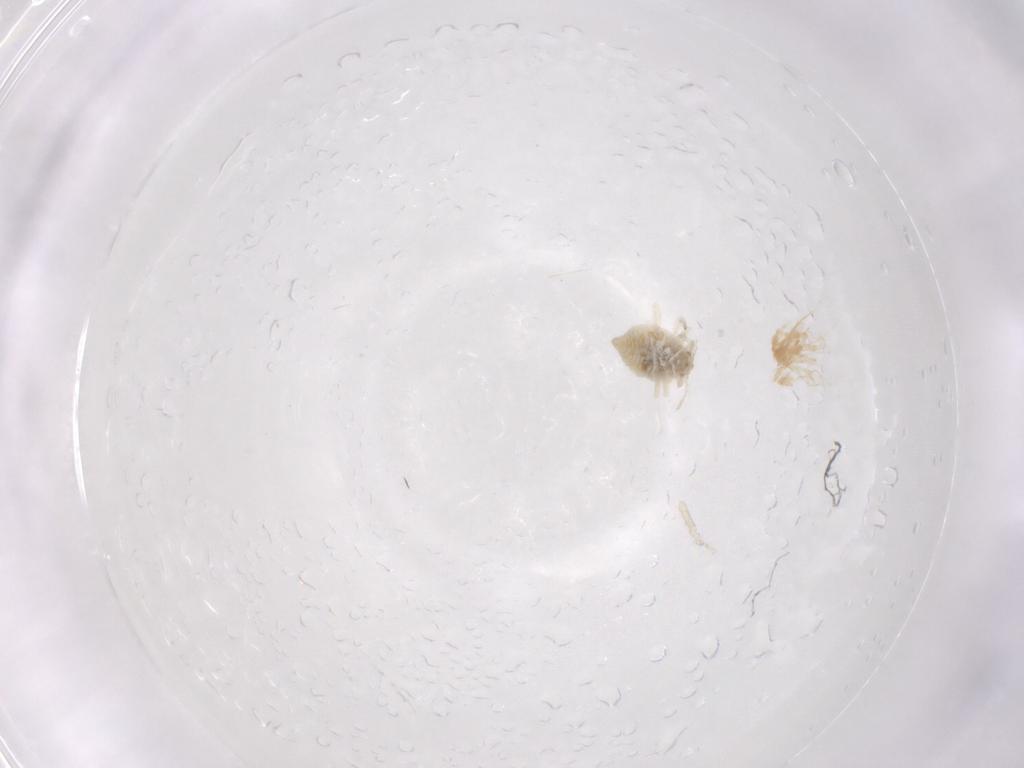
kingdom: Animalia
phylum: Arthropoda
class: Insecta
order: Neuroptera
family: Coniopterygidae
